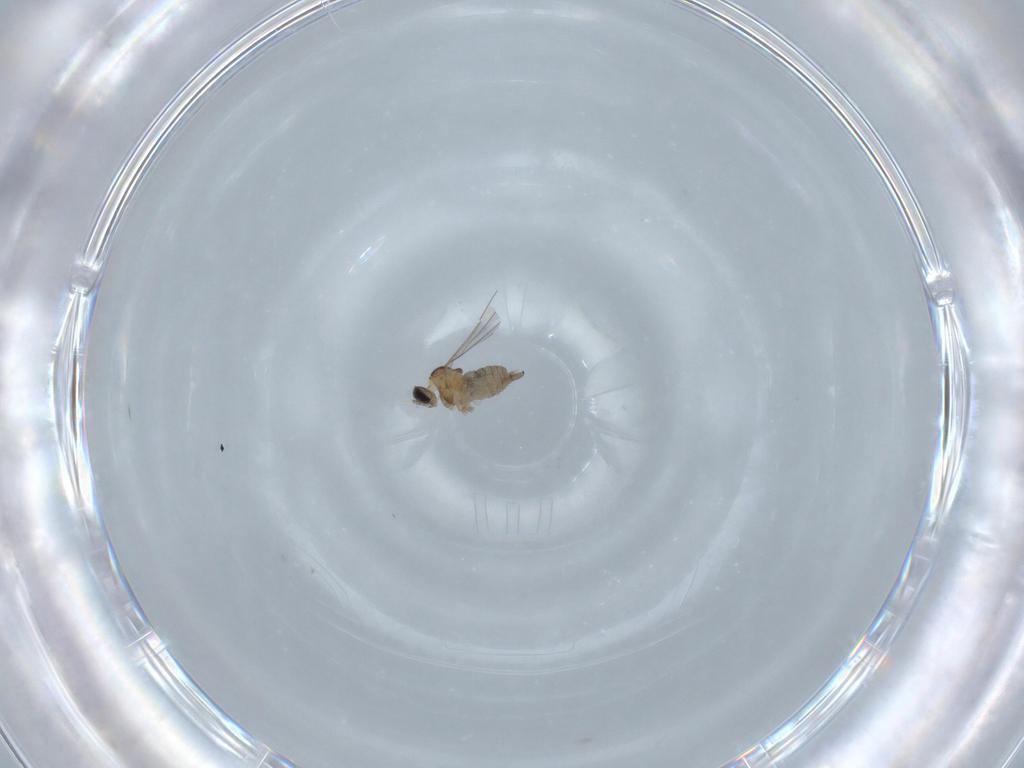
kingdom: Animalia
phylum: Arthropoda
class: Insecta
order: Diptera
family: Cecidomyiidae
